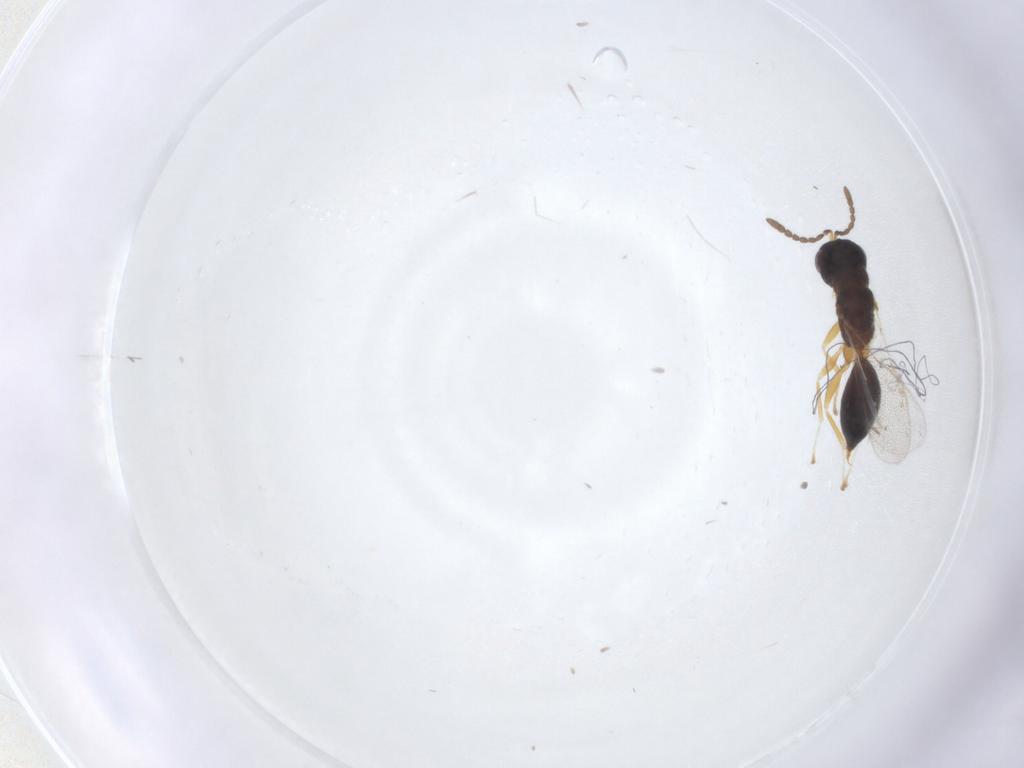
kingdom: Animalia
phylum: Arthropoda
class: Insecta
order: Hymenoptera
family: Eurytomidae
